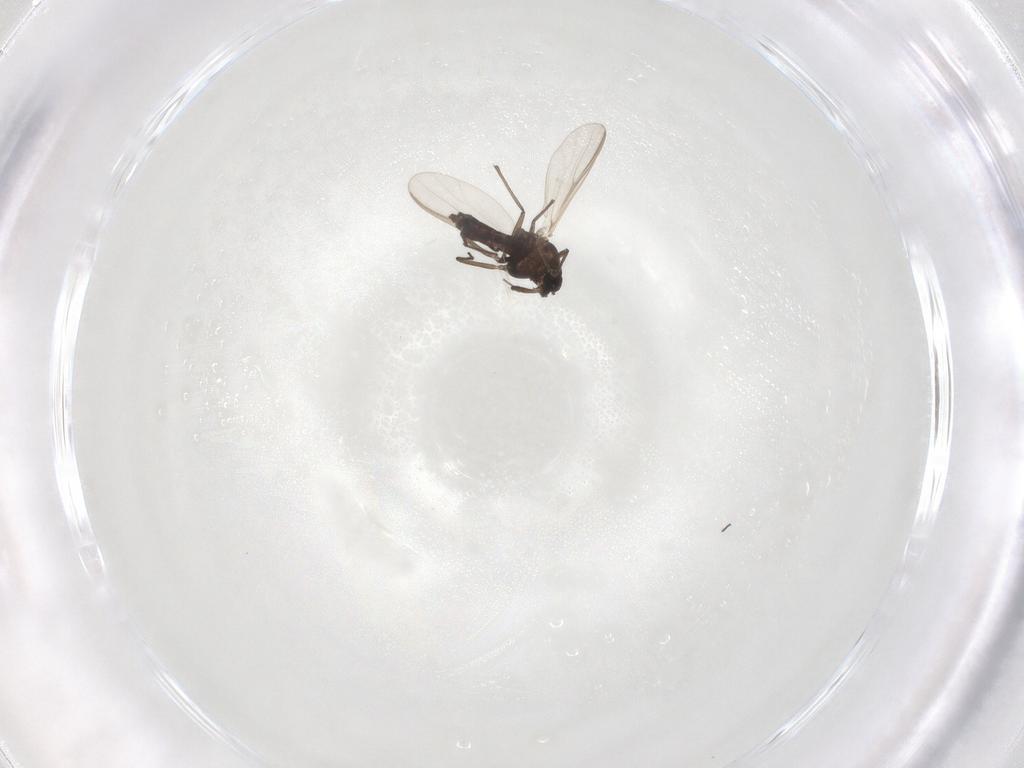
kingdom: Animalia
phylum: Arthropoda
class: Insecta
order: Diptera
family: Chironomidae
